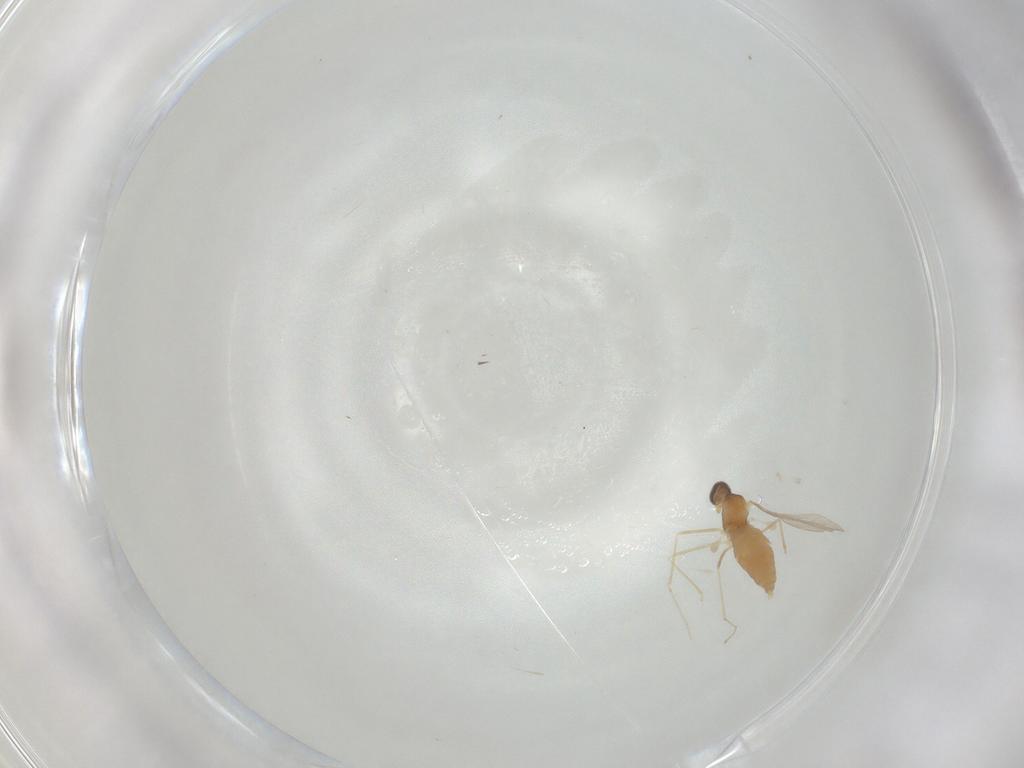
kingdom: Animalia
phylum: Arthropoda
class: Insecta
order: Diptera
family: Cecidomyiidae
